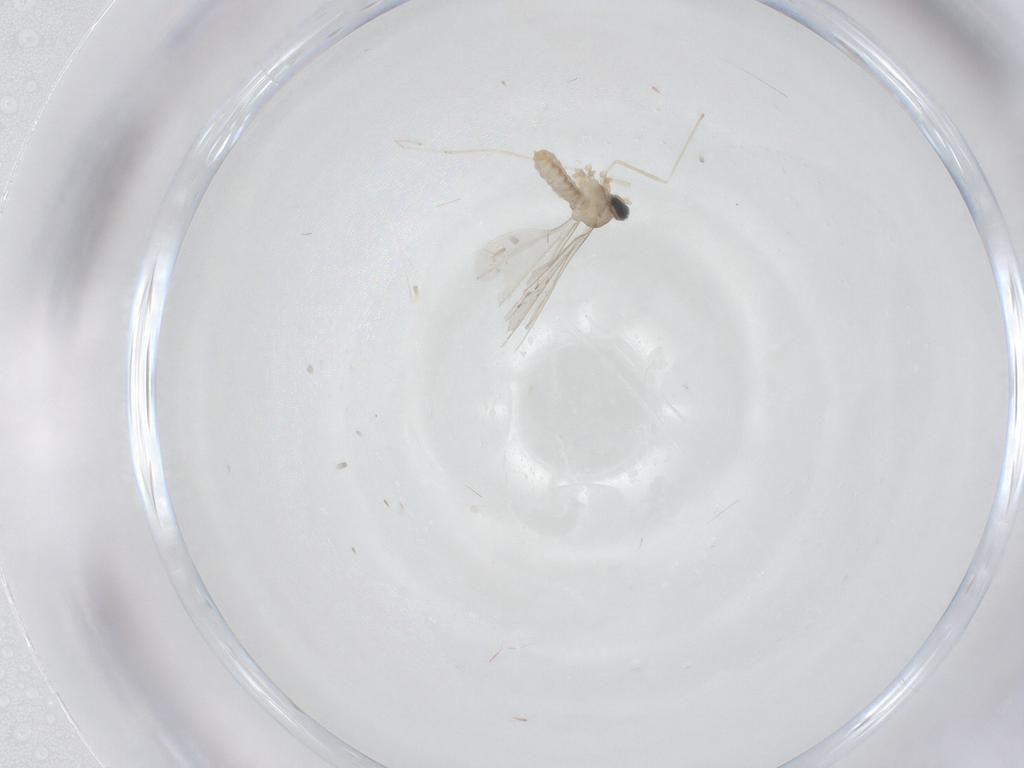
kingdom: Animalia
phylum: Arthropoda
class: Insecta
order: Diptera
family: Cecidomyiidae
